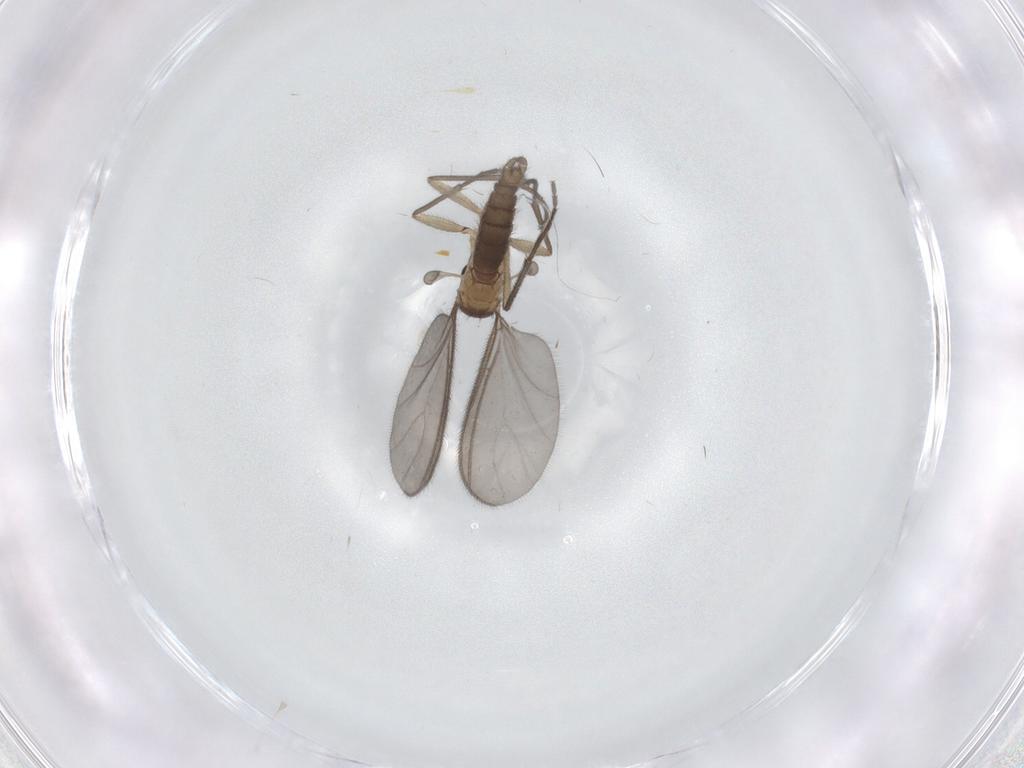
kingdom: Animalia
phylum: Arthropoda
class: Insecta
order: Diptera
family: Sciaridae
